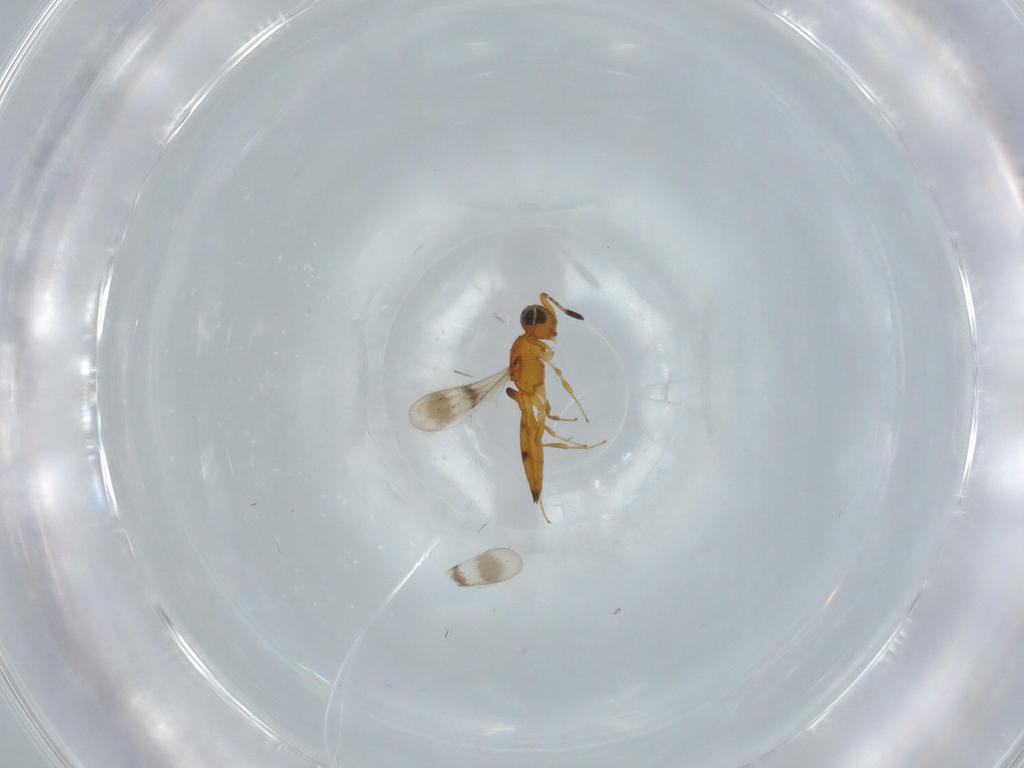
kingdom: Animalia
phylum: Arthropoda
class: Insecta
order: Hymenoptera
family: Scelionidae
